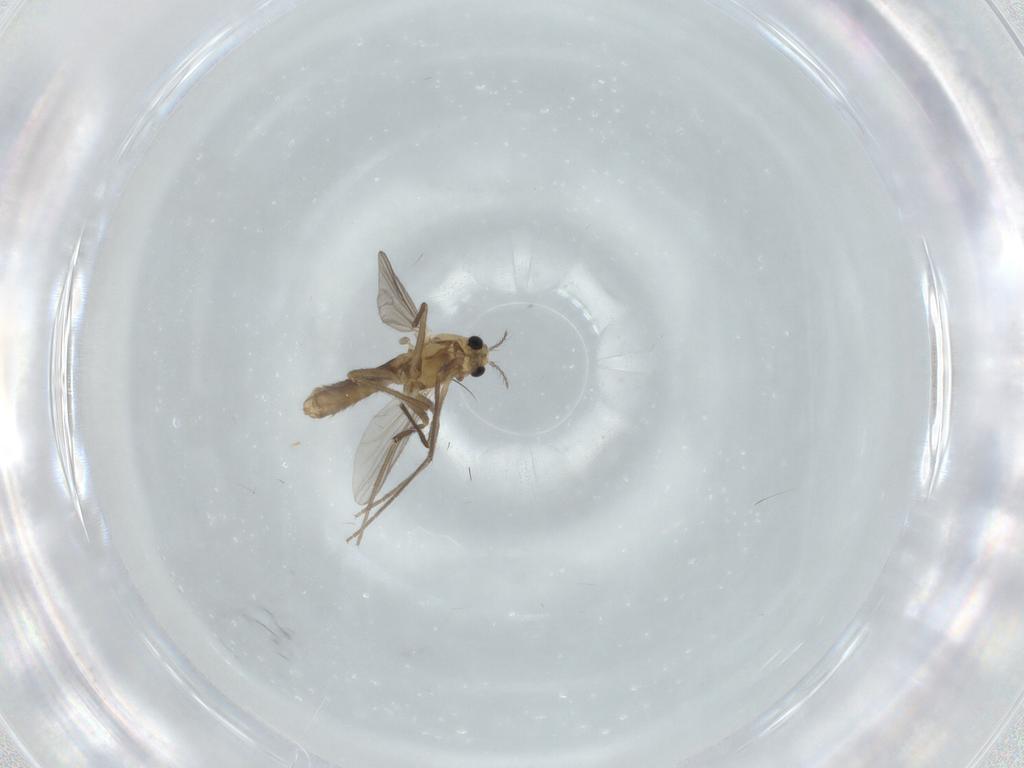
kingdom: Animalia
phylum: Arthropoda
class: Insecta
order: Diptera
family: Chironomidae
